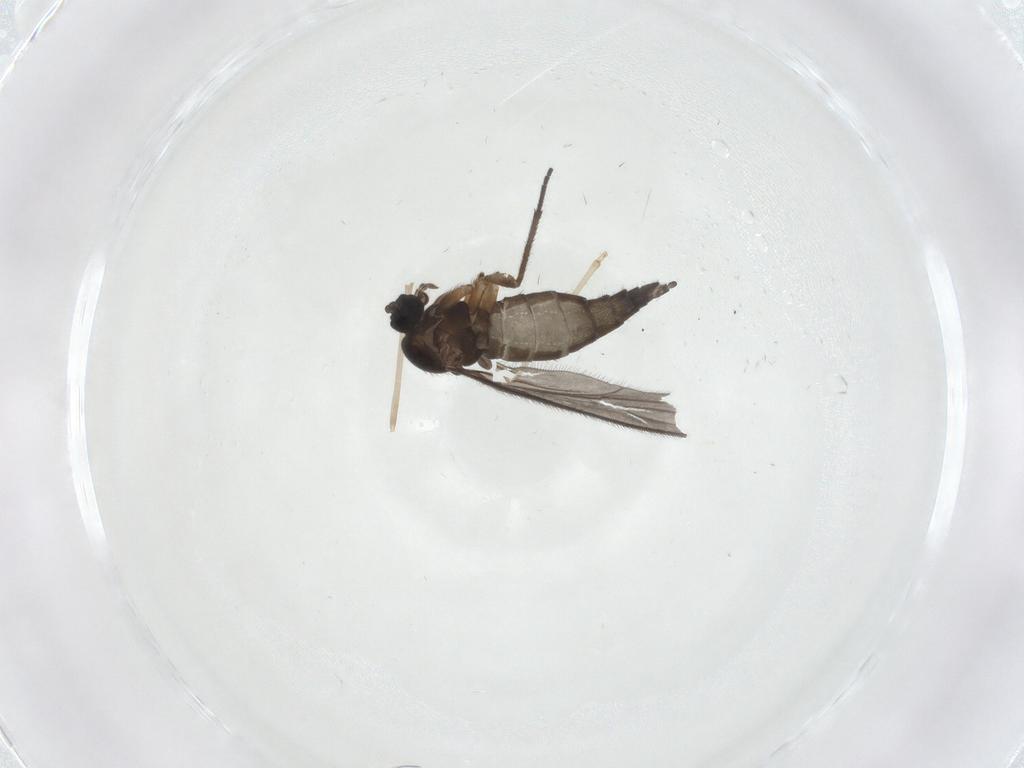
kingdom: Animalia
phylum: Arthropoda
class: Insecta
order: Diptera
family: Sciaridae
